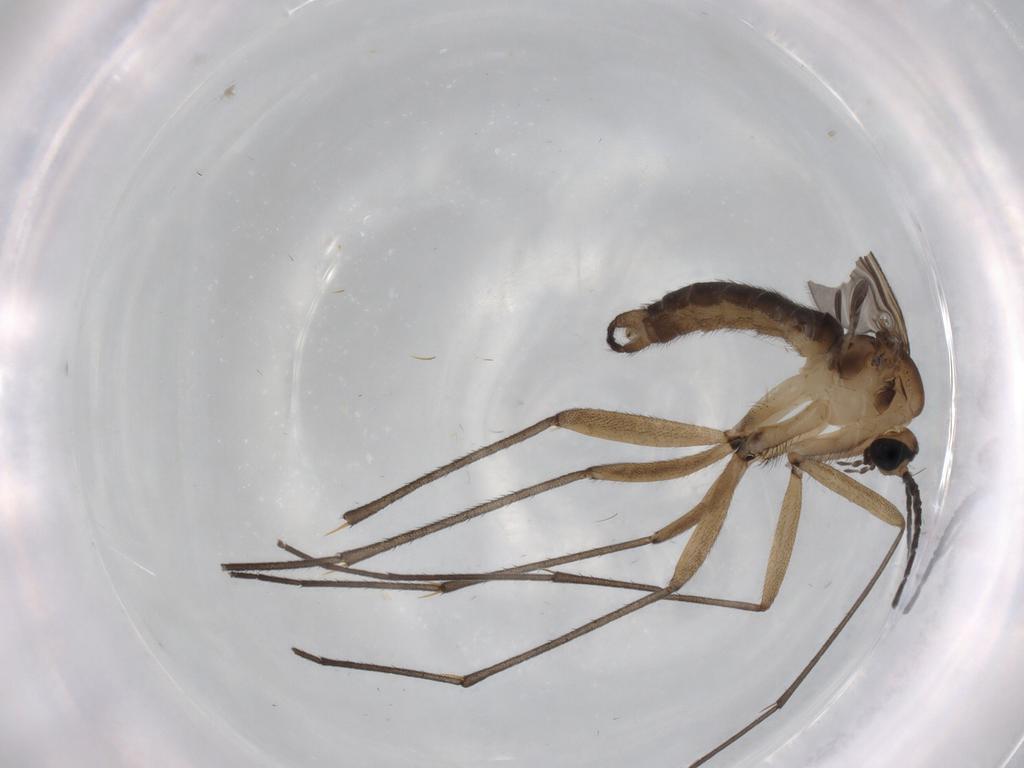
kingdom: Animalia
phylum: Arthropoda
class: Insecta
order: Diptera
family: Sciaridae
